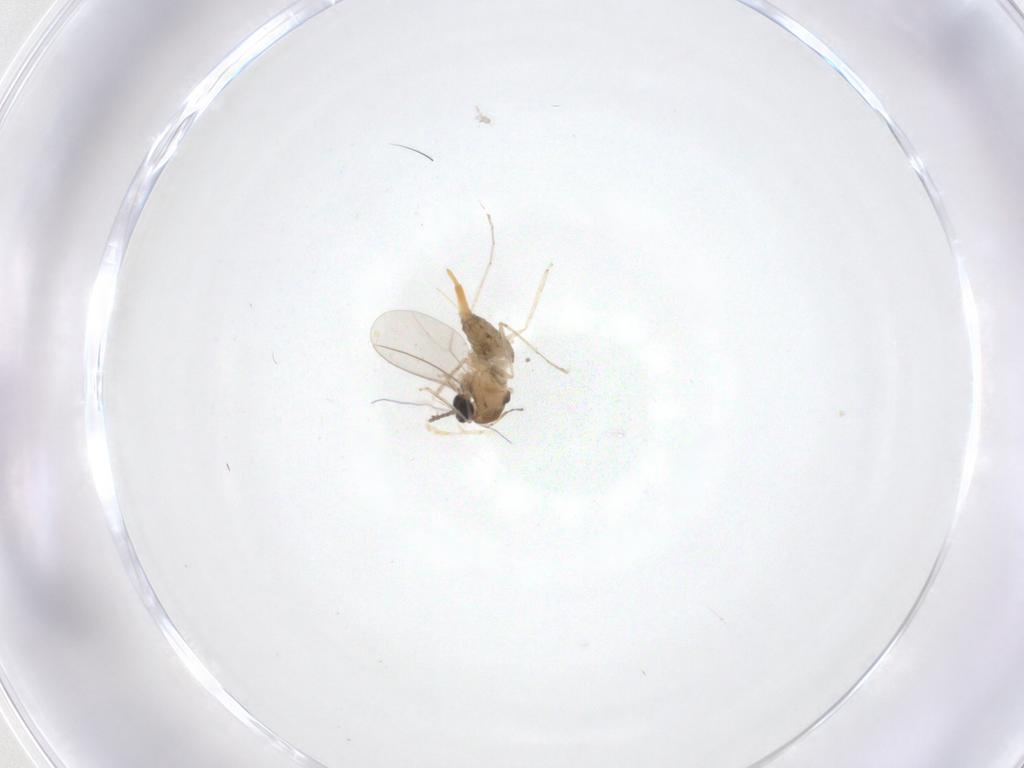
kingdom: Animalia
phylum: Arthropoda
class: Insecta
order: Diptera
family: Cecidomyiidae
